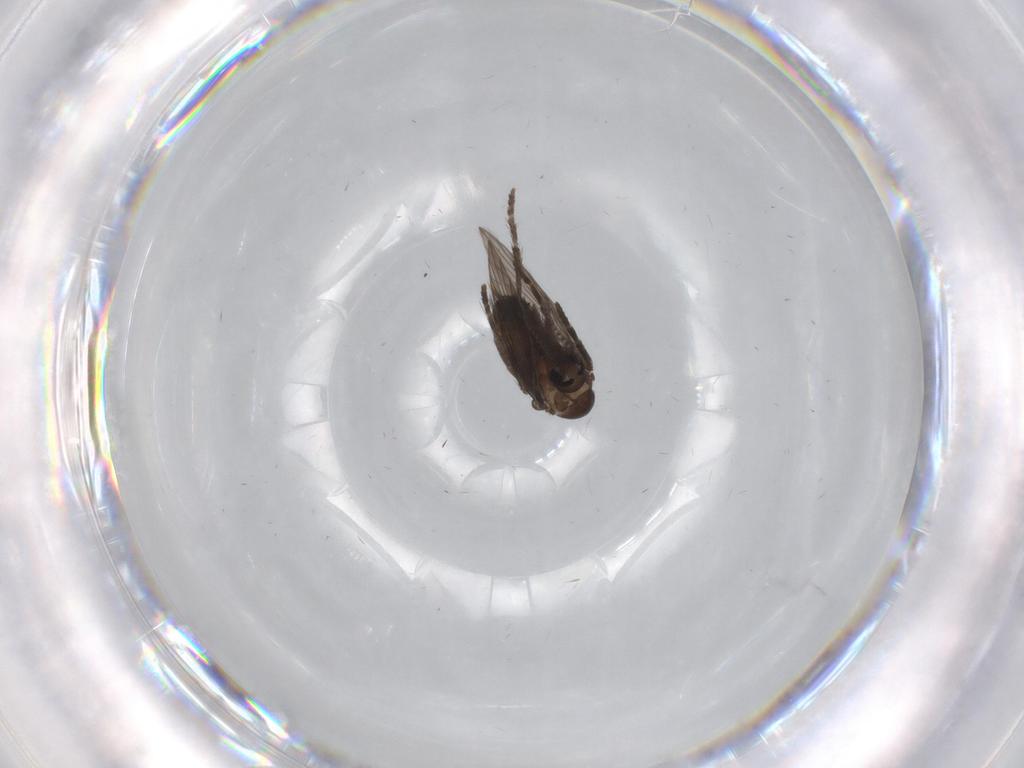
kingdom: Animalia
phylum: Arthropoda
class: Insecta
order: Diptera
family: Psychodidae
